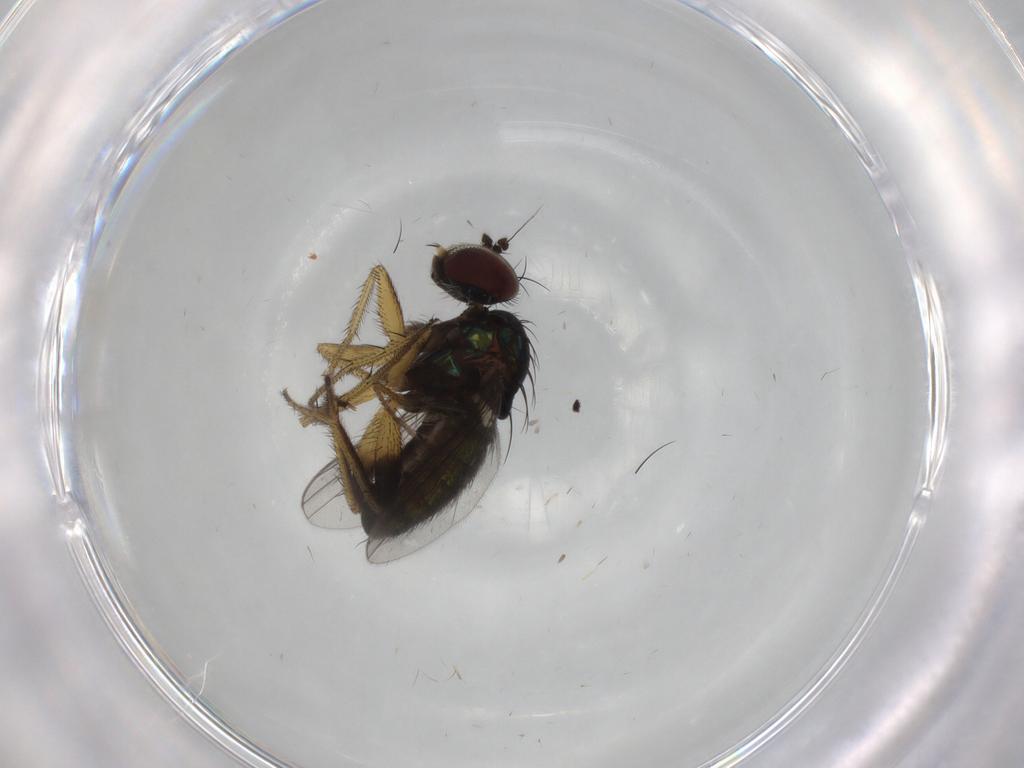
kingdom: Animalia
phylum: Arthropoda
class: Insecta
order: Diptera
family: Dolichopodidae
